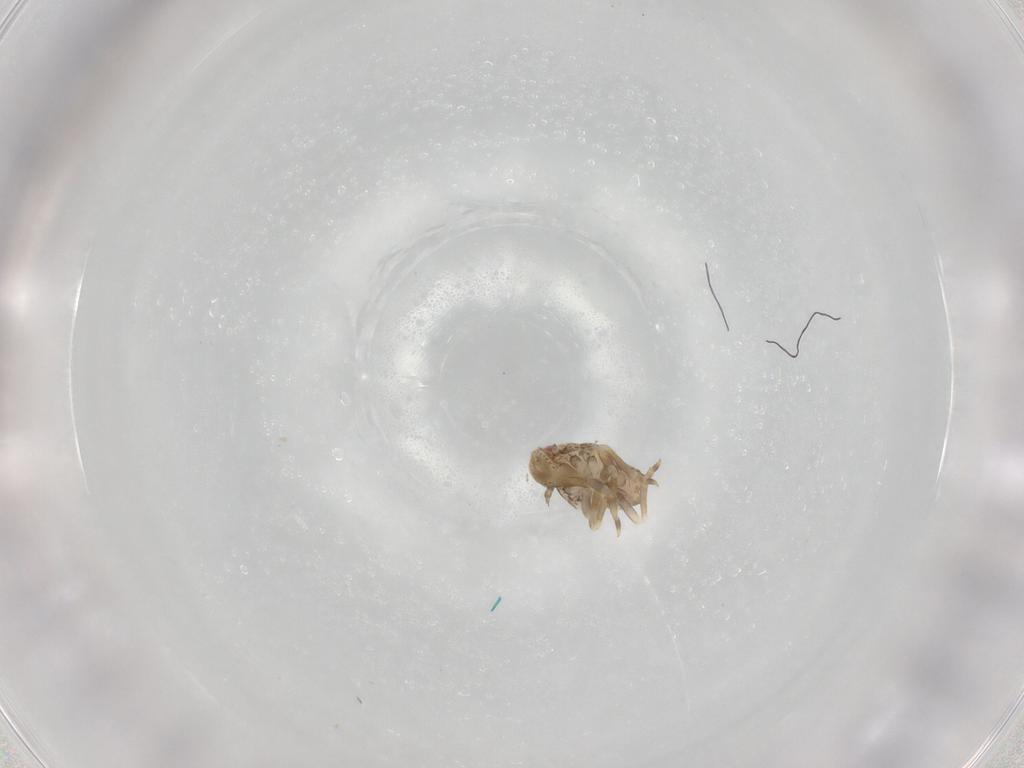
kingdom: Animalia
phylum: Arthropoda
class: Insecta
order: Hemiptera
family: Flatidae
